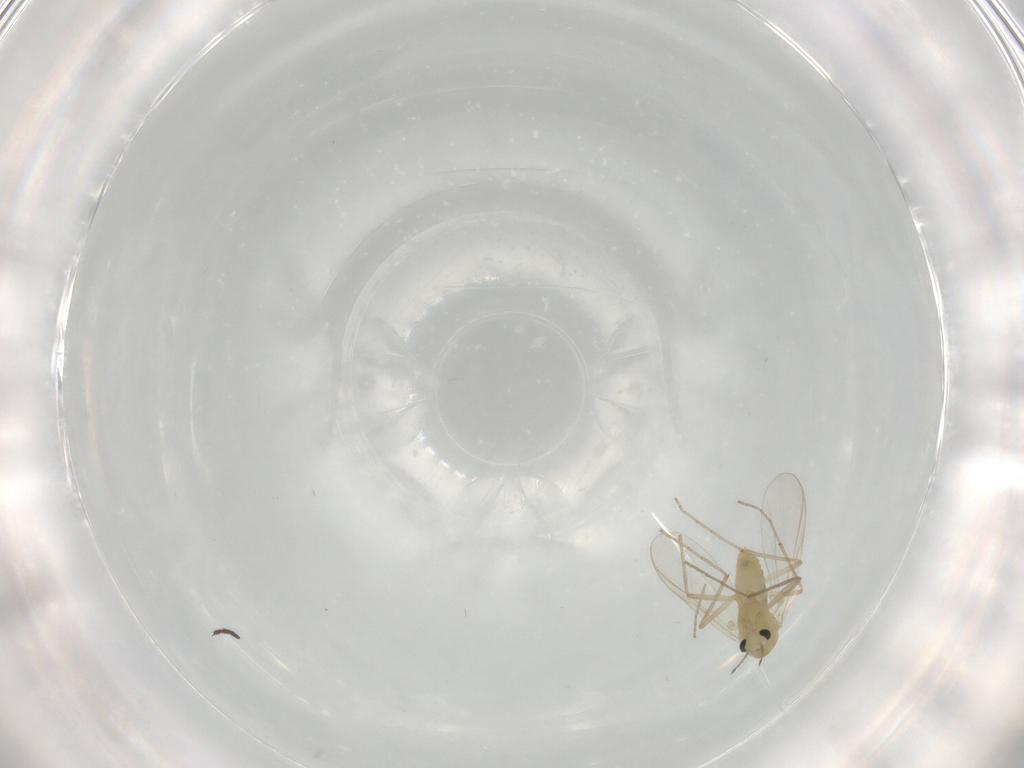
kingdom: Animalia
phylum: Arthropoda
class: Insecta
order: Diptera
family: Chironomidae
